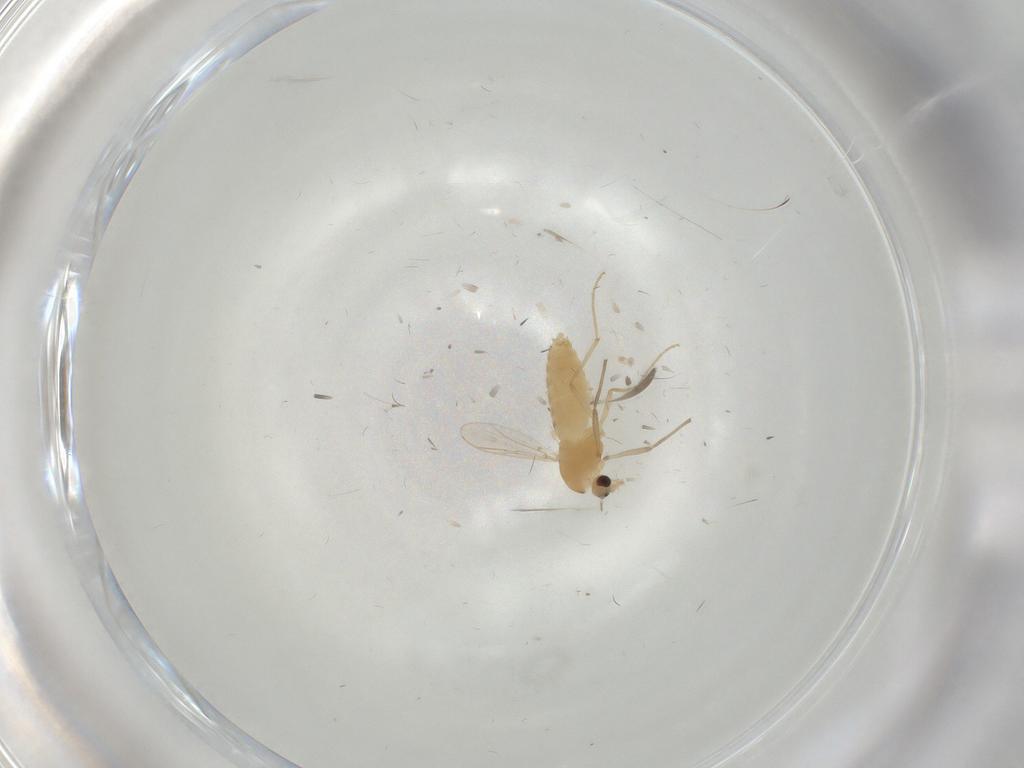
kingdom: Animalia
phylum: Arthropoda
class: Insecta
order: Diptera
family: Chironomidae
